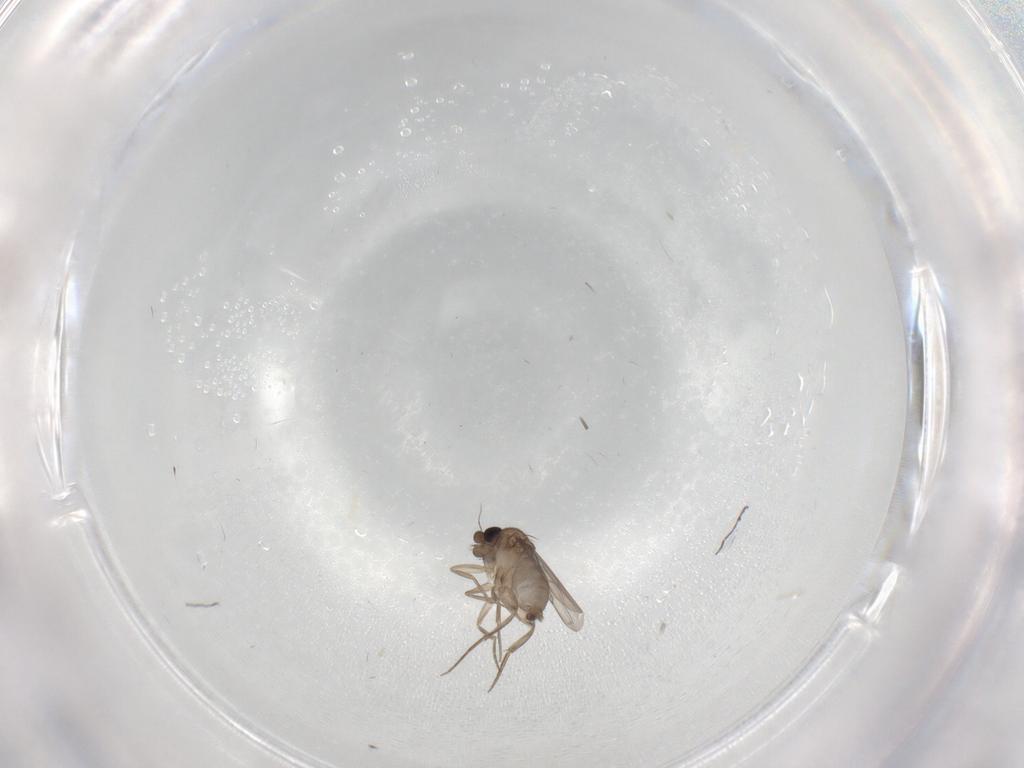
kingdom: Animalia
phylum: Arthropoda
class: Insecta
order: Diptera
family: Phoridae
